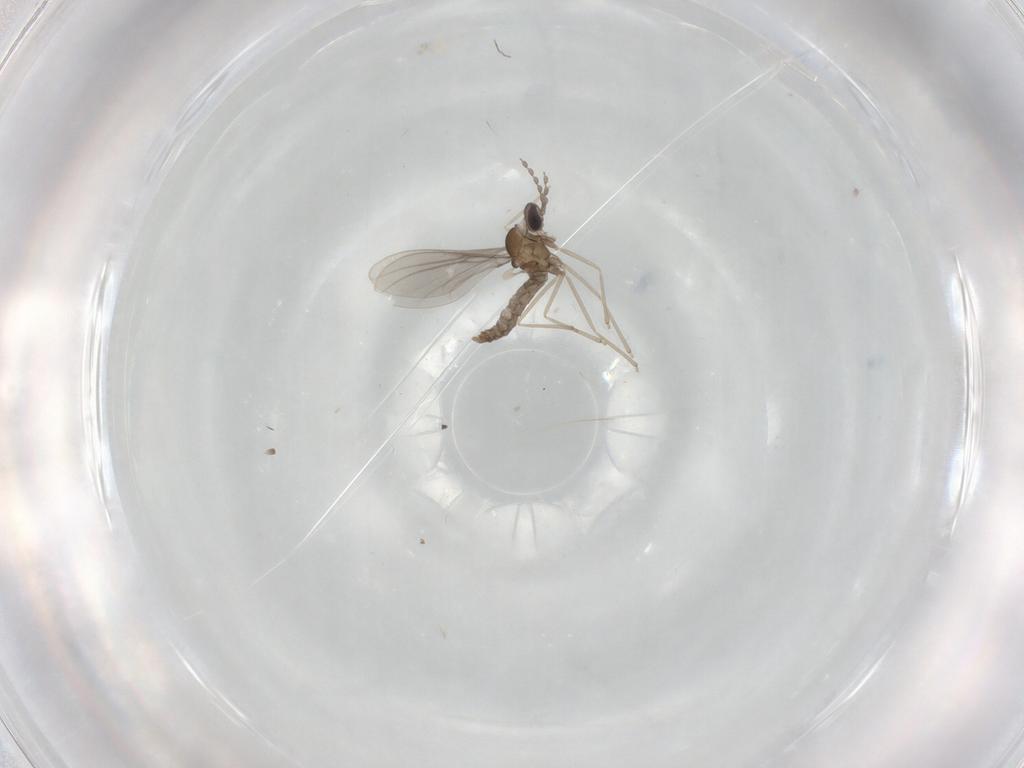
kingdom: Animalia
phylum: Arthropoda
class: Insecta
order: Diptera
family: Cecidomyiidae
